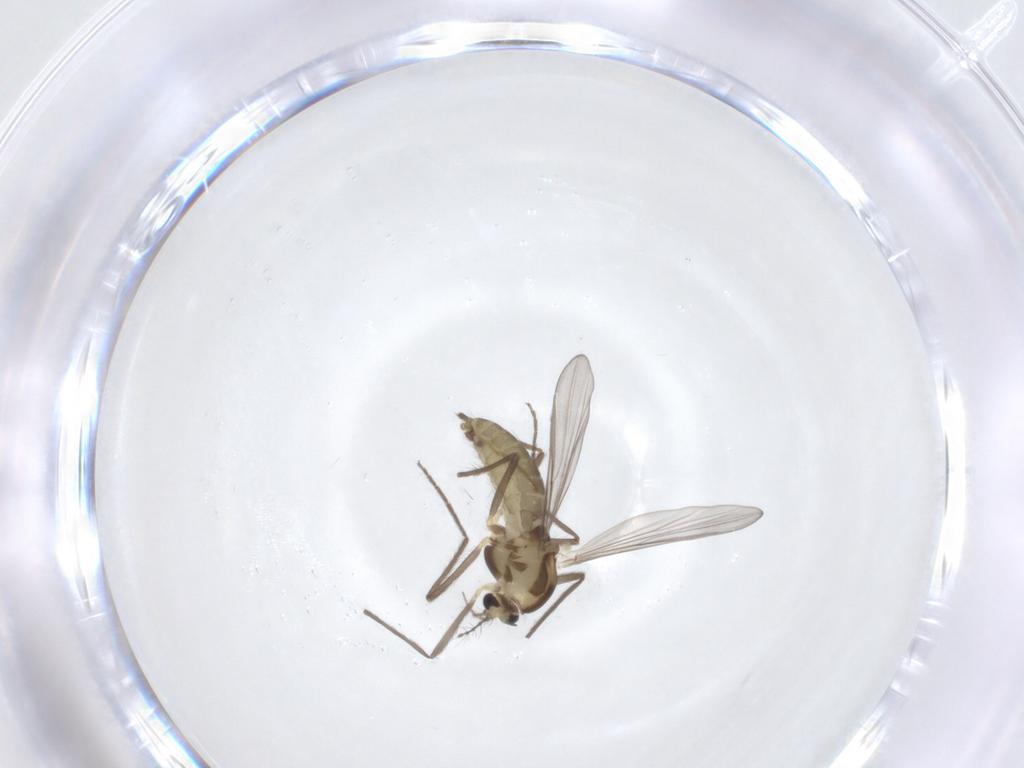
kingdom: Animalia
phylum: Arthropoda
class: Insecta
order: Diptera
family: Chironomidae
